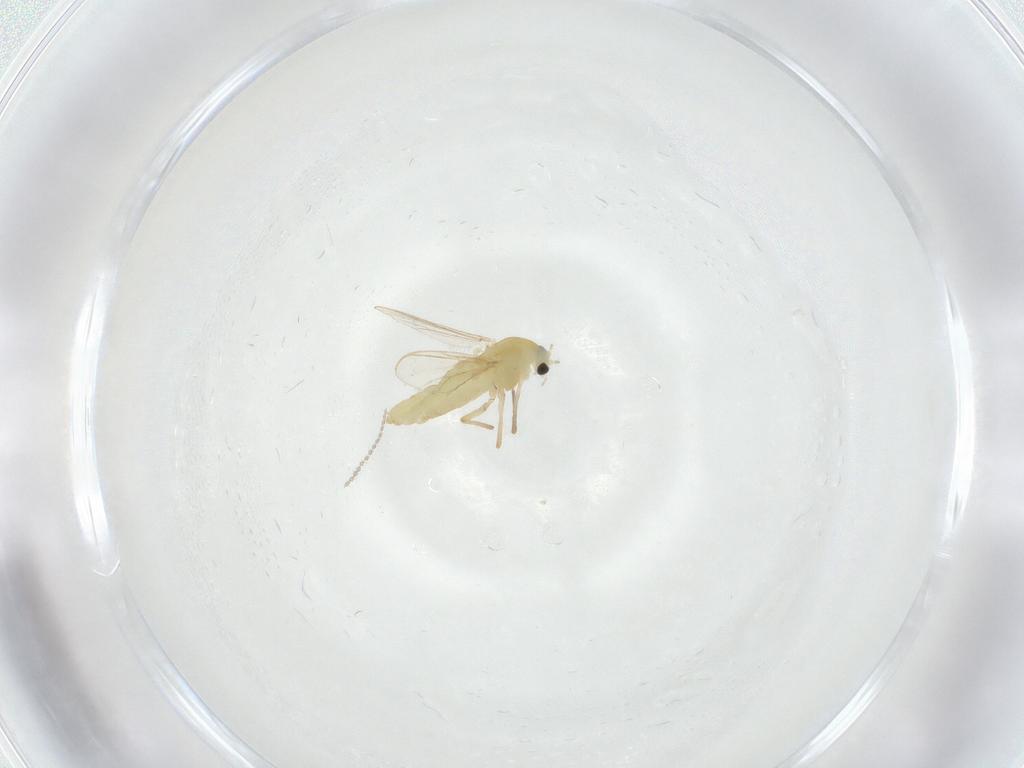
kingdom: Animalia
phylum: Arthropoda
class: Insecta
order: Diptera
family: Chironomidae
